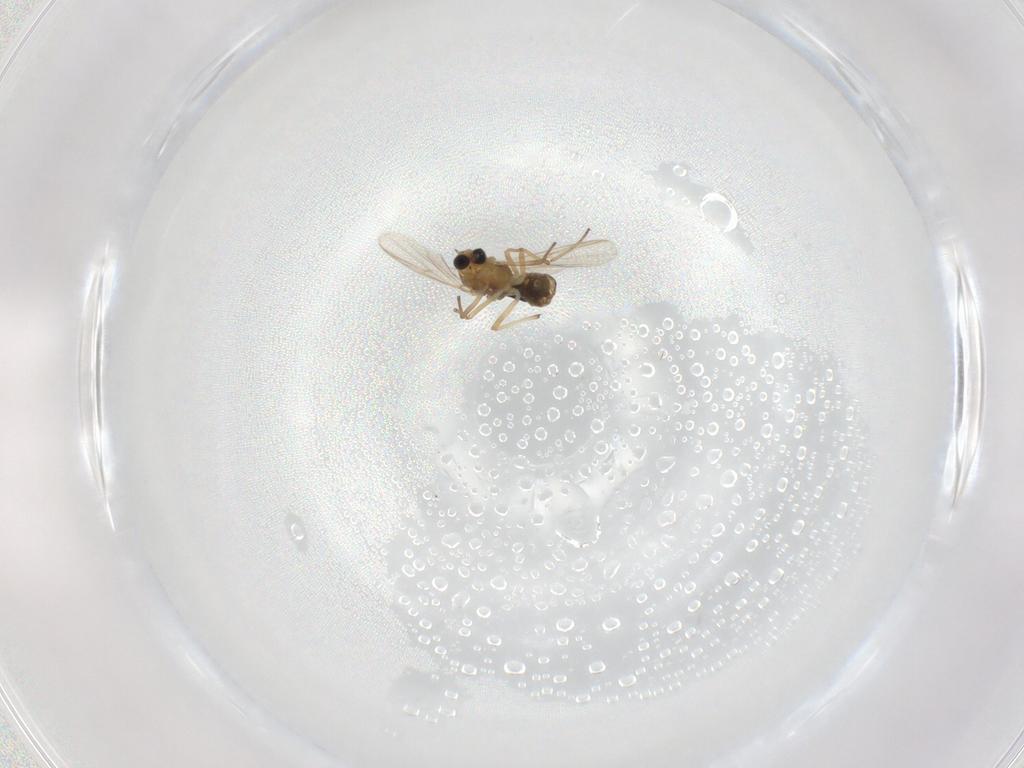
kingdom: Animalia
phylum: Arthropoda
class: Insecta
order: Diptera
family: Chironomidae
